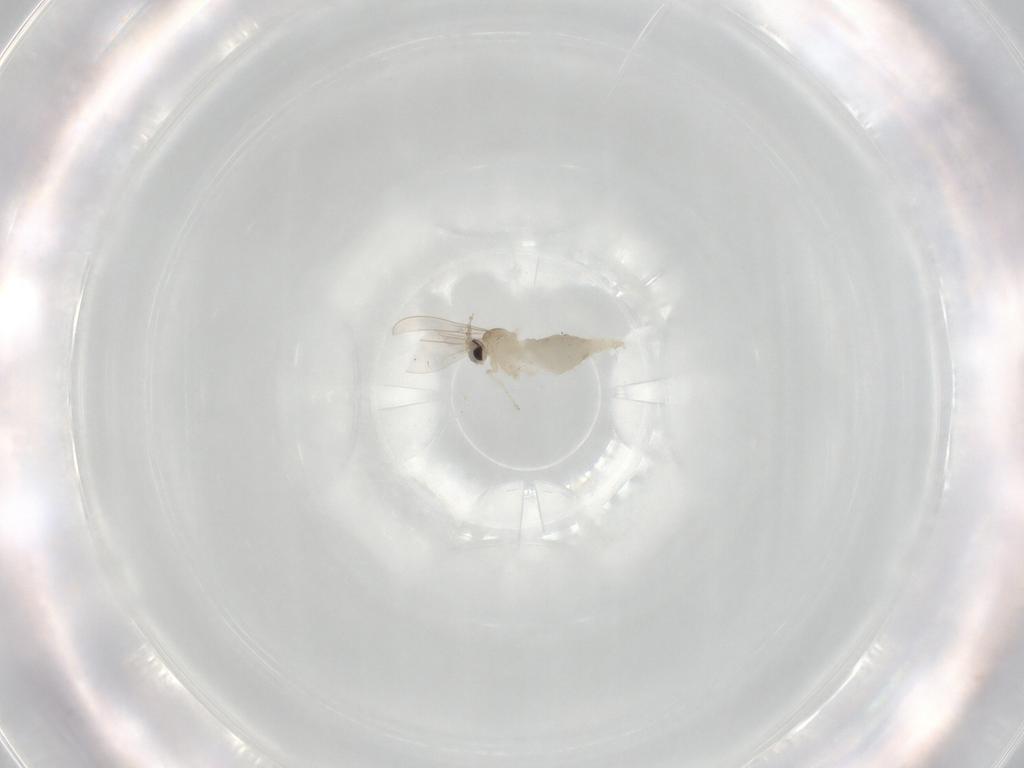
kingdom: Animalia
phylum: Arthropoda
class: Insecta
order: Diptera
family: Cecidomyiidae
